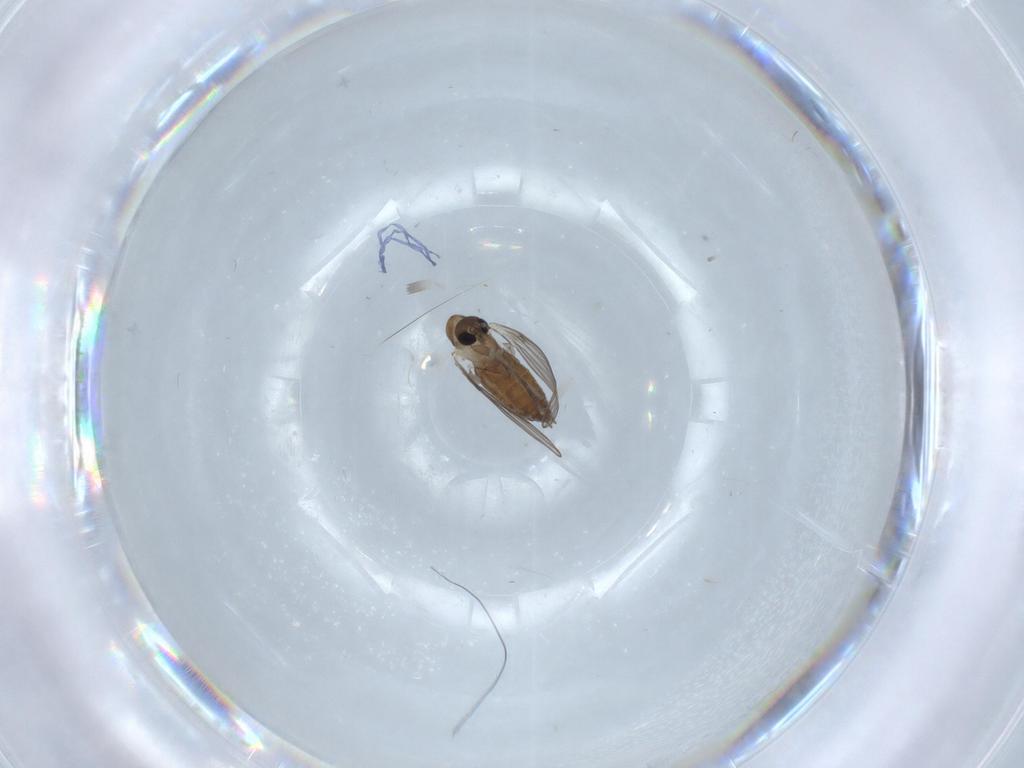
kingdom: Animalia
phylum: Arthropoda
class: Insecta
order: Diptera
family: Psychodidae
